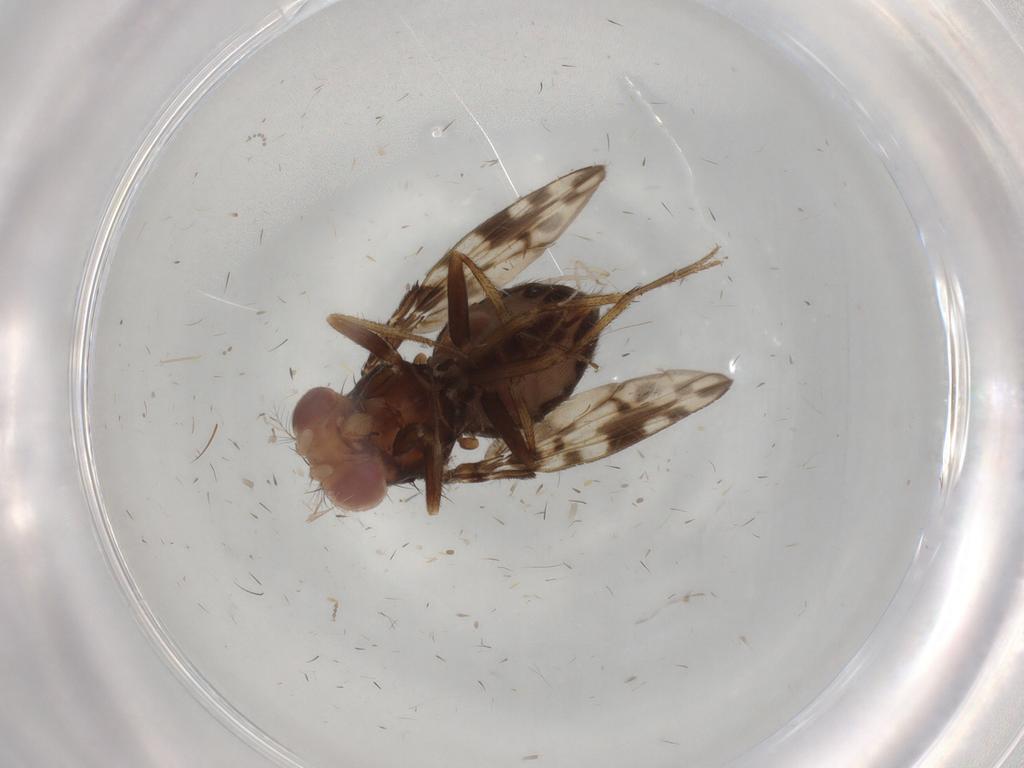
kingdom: Animalia
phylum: Arthropoda
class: Insecta
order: Diptera
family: Drosophilidae
